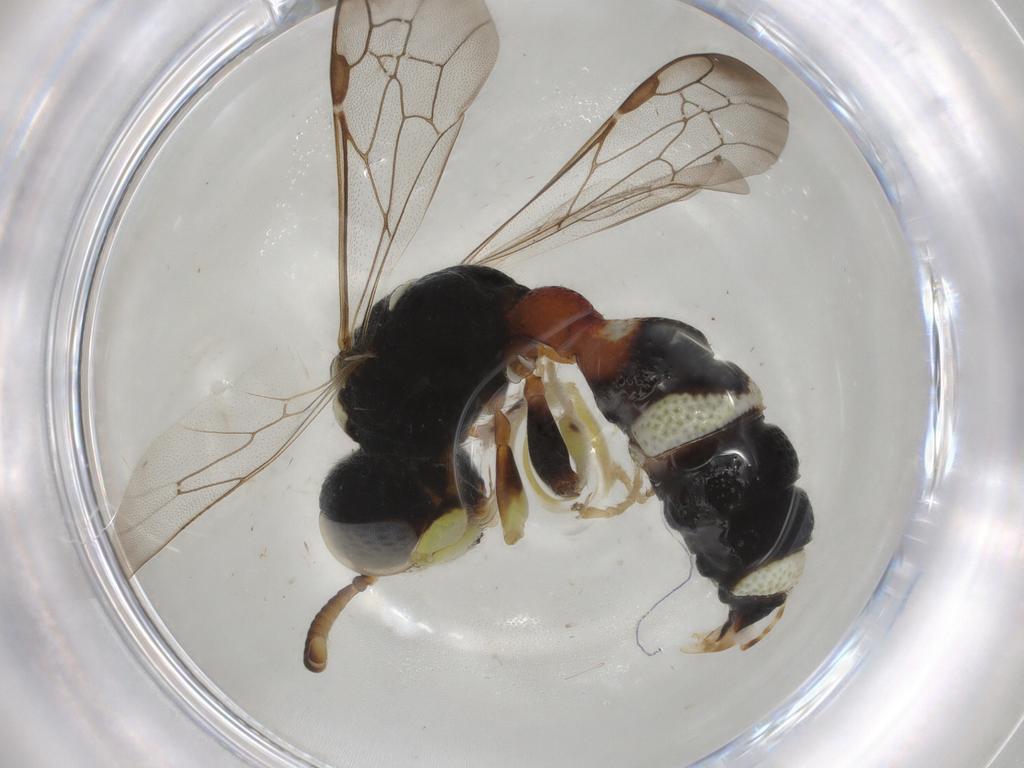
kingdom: Animalia
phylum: Arthropoda
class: Insecta
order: Hymenoptera
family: Crabronidae
